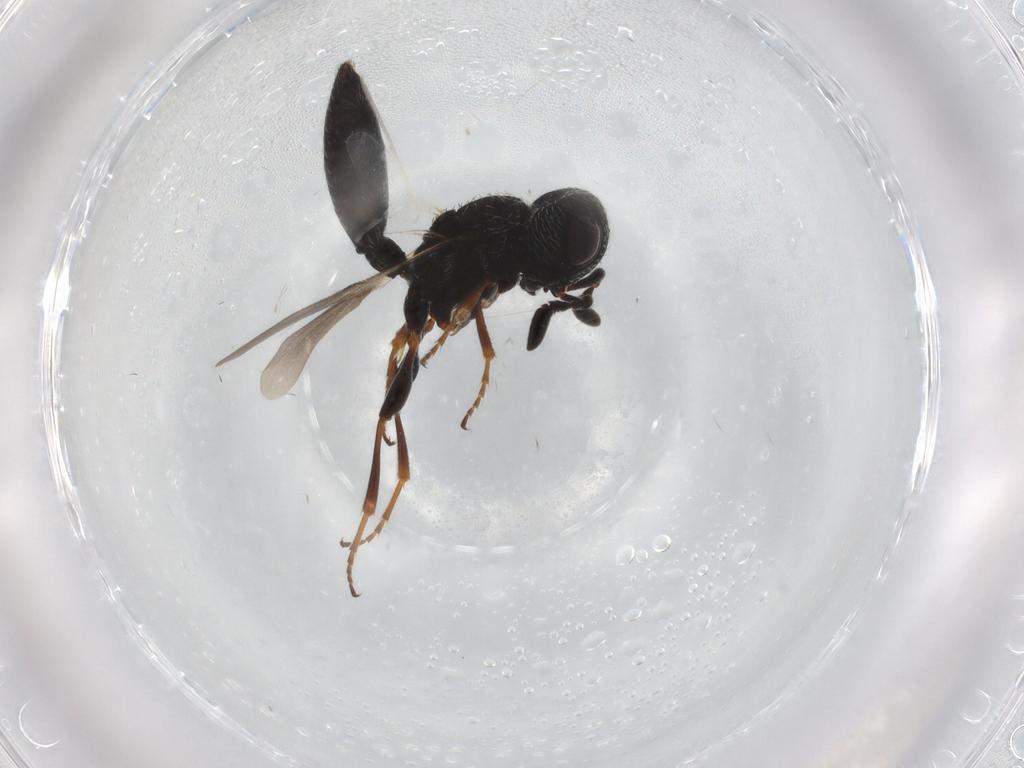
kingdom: Animalia
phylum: Arthropoda
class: Insecta
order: Hymenoptera
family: Scelionidae
